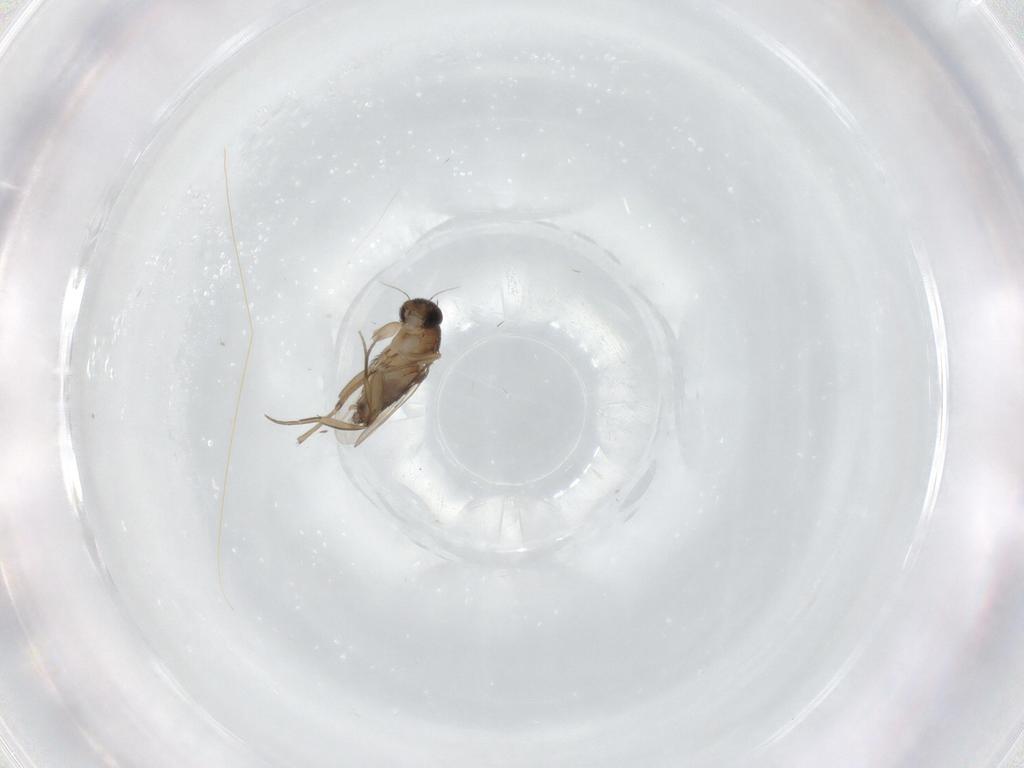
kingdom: Animalia
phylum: Arthropoda
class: Insecta
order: Diptera
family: Phoridae
